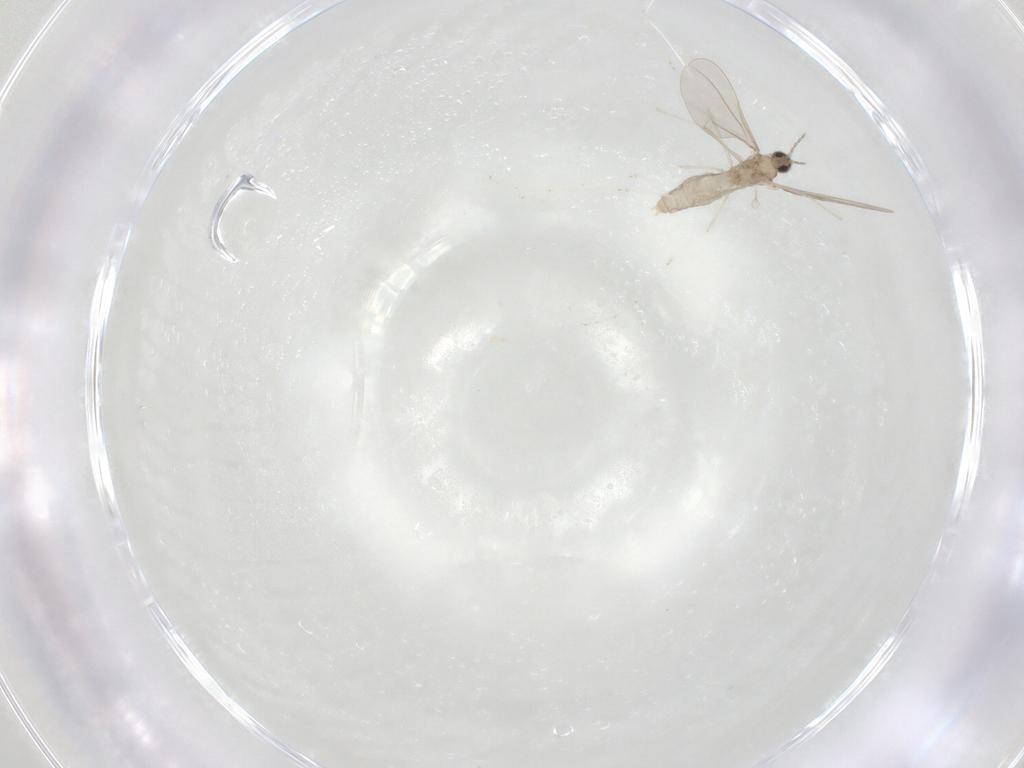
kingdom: Animalia
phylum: Arthropoda
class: Insecta
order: Diptera
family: Cecidomyiidae
